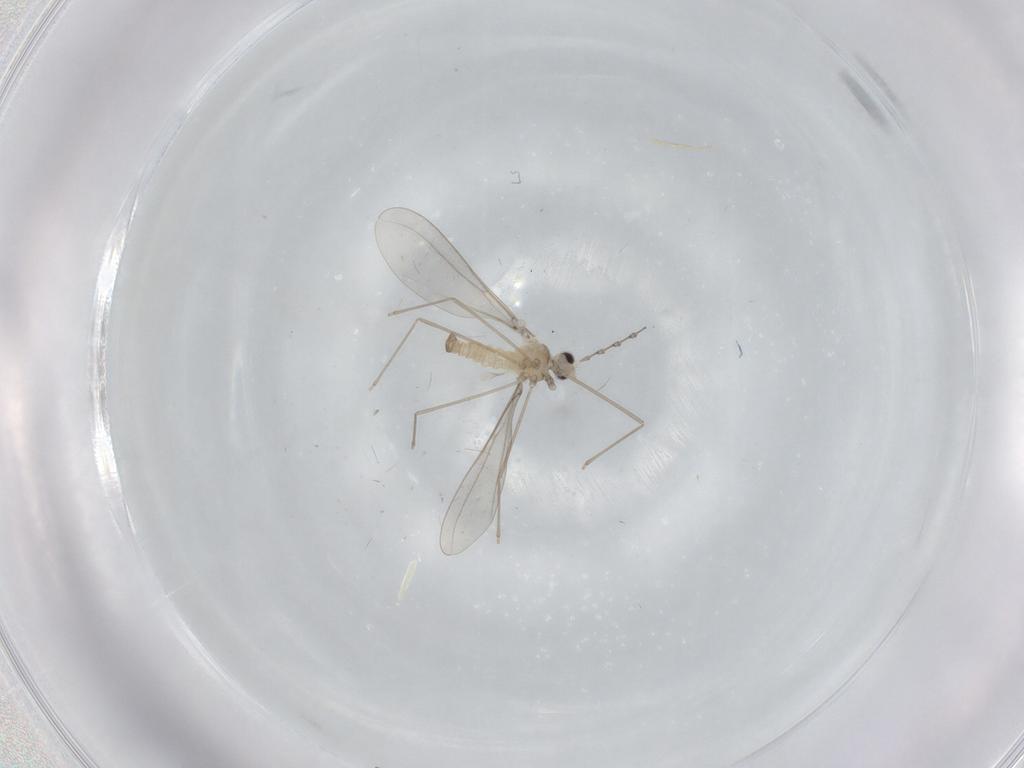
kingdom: Animalia
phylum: Arthropoda
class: Insecta
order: Diptera
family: Cecidomyiidae
